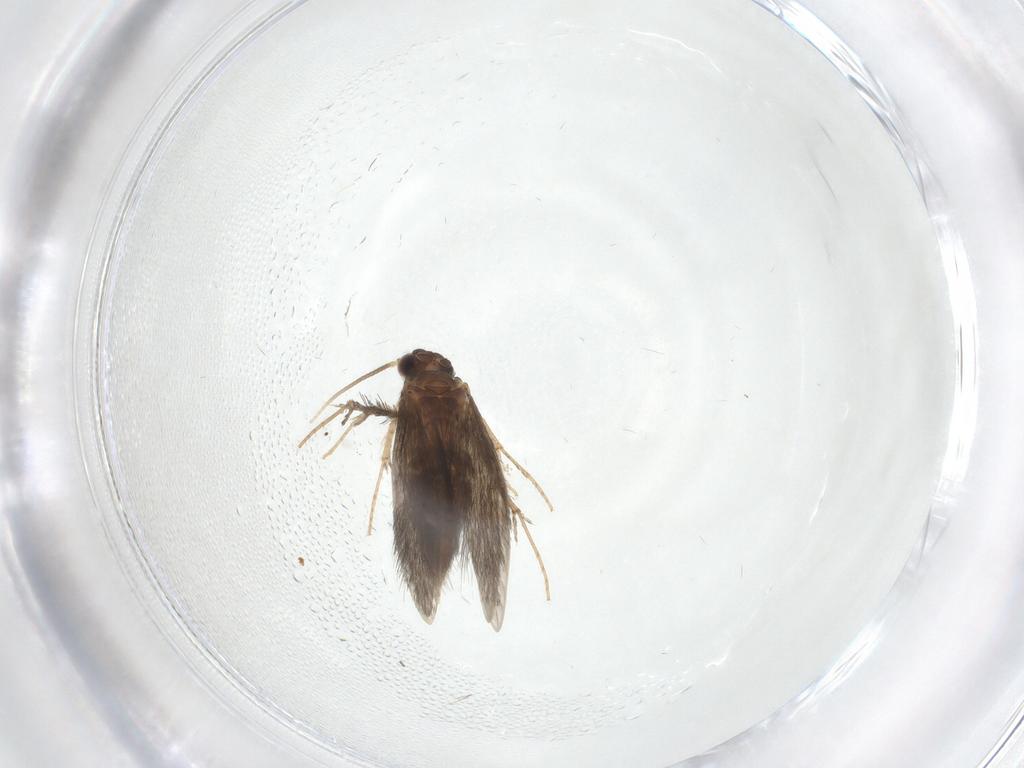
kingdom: Animalia
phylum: Arthropoda
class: Insecta
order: Trichoptera
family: Hydroptilidae
